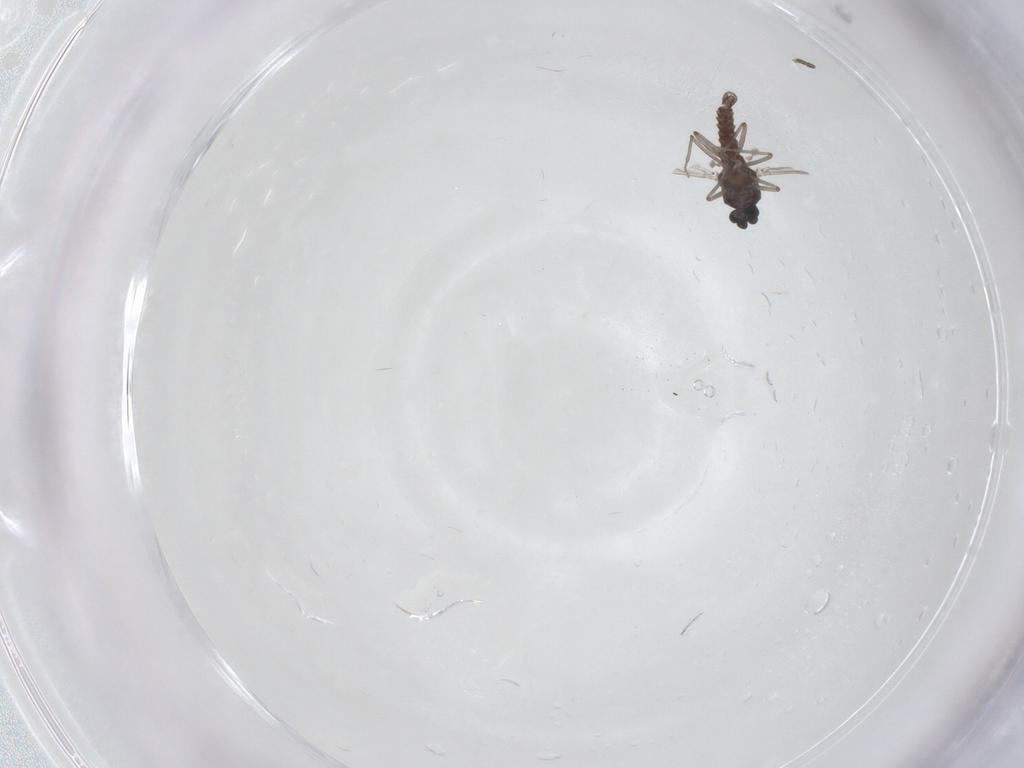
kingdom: Animalia
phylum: Arthropoda
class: Insecta
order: Diptera
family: Ceratopogonidae
